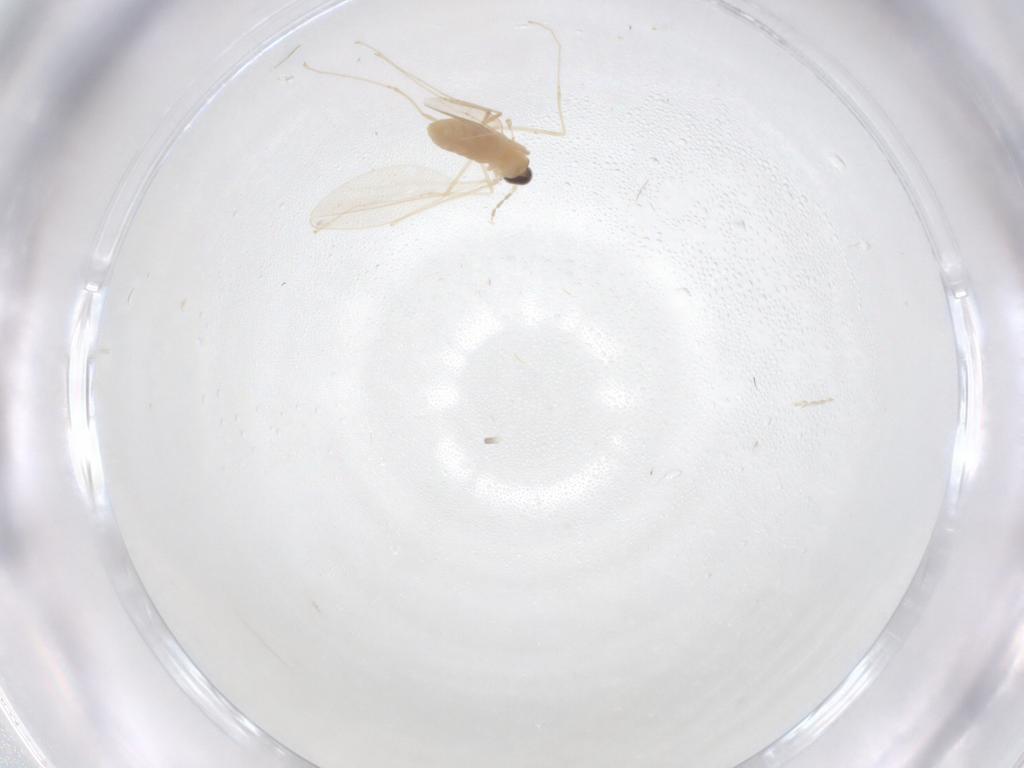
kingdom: Animalia
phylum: Arthropoda
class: Insecta
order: Diptera
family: Cecidomyiidae
